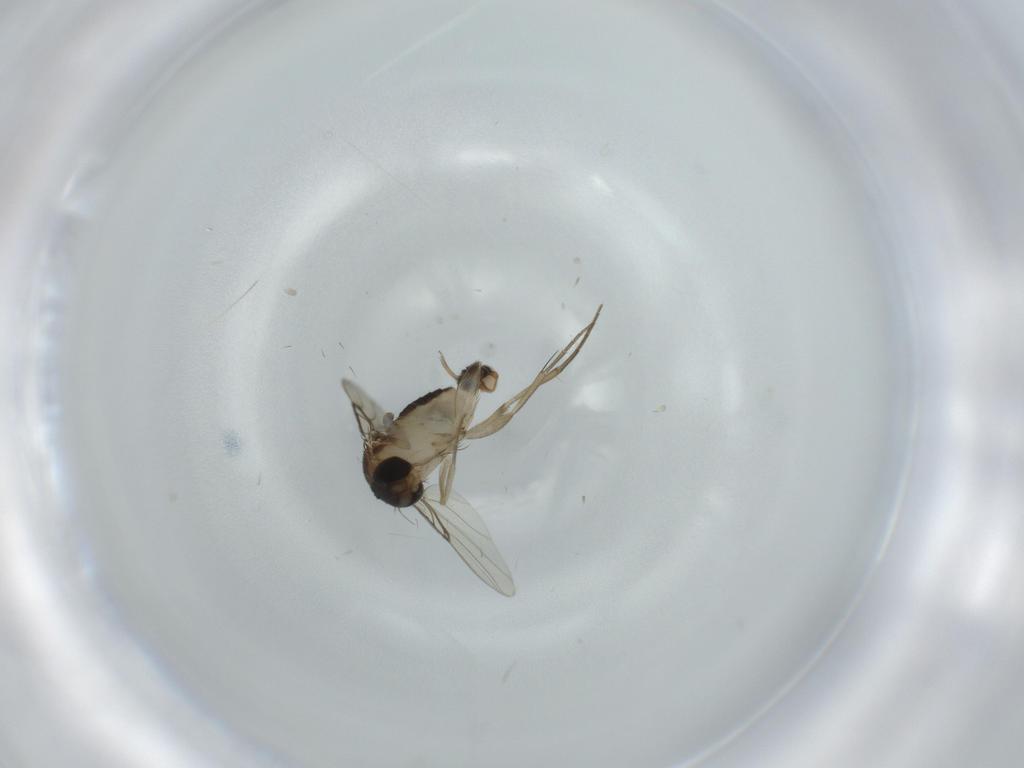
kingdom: Animalia
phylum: Arthropoda
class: Insecta
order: Diptera
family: Phoridae
